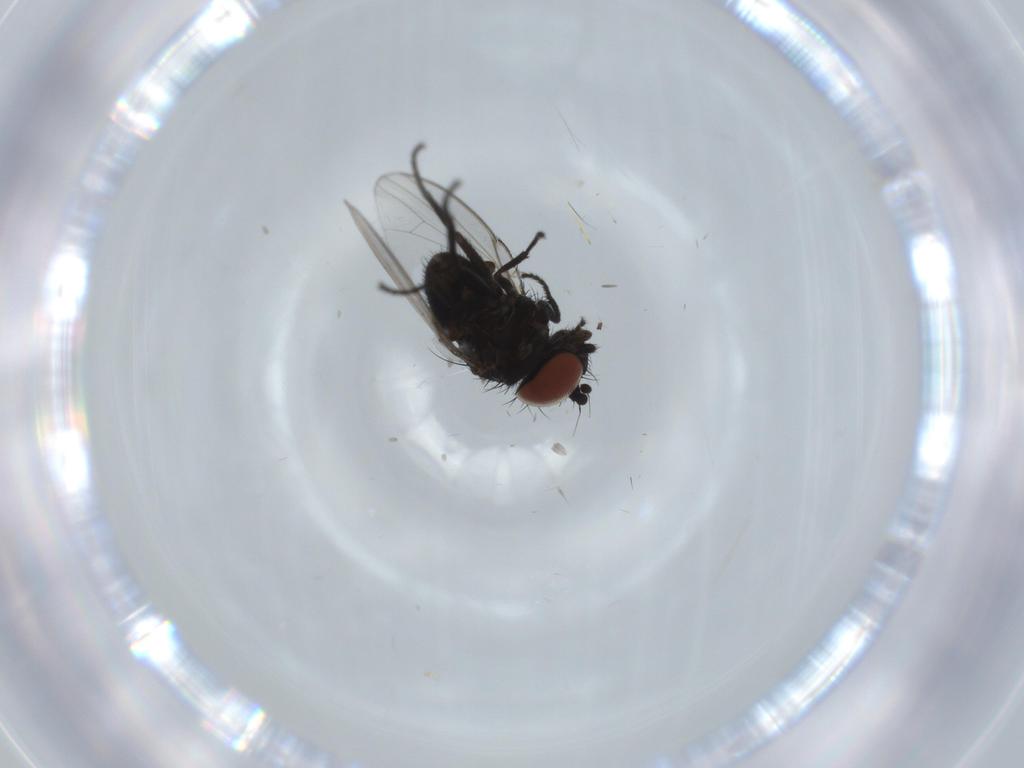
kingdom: Animalia
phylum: Arthropoda
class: Insecta
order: Diptera
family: Milichiidae
